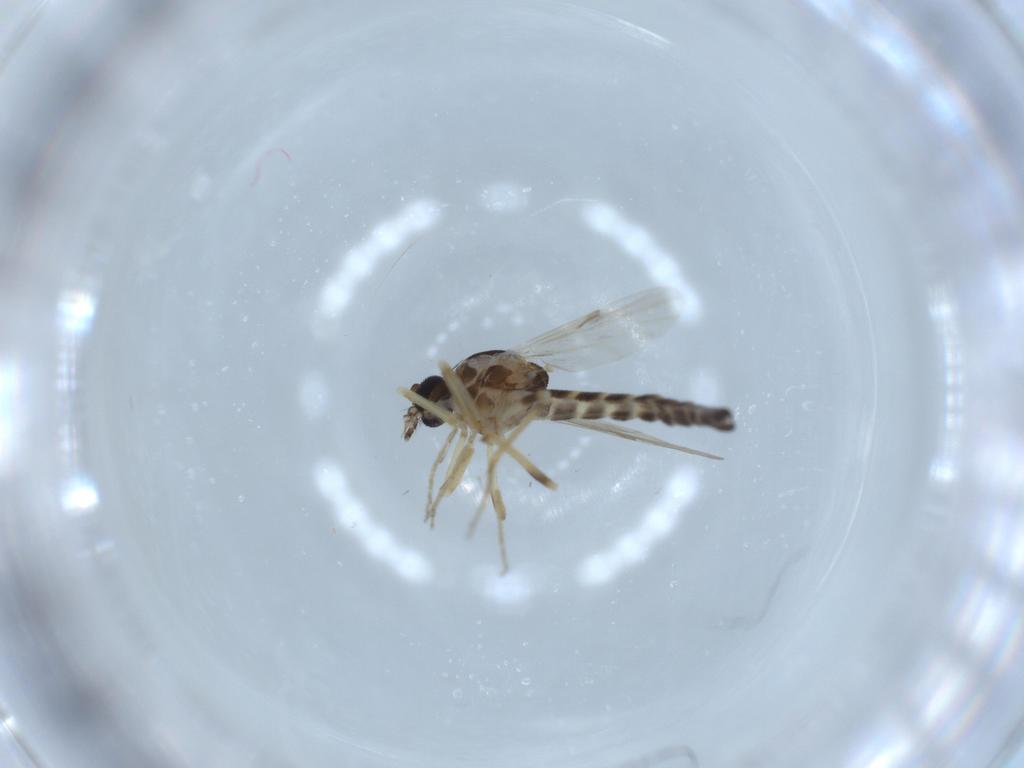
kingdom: Animalia
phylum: Arthropoda
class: Insecta
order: Diptera
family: Ceratopogonidae
